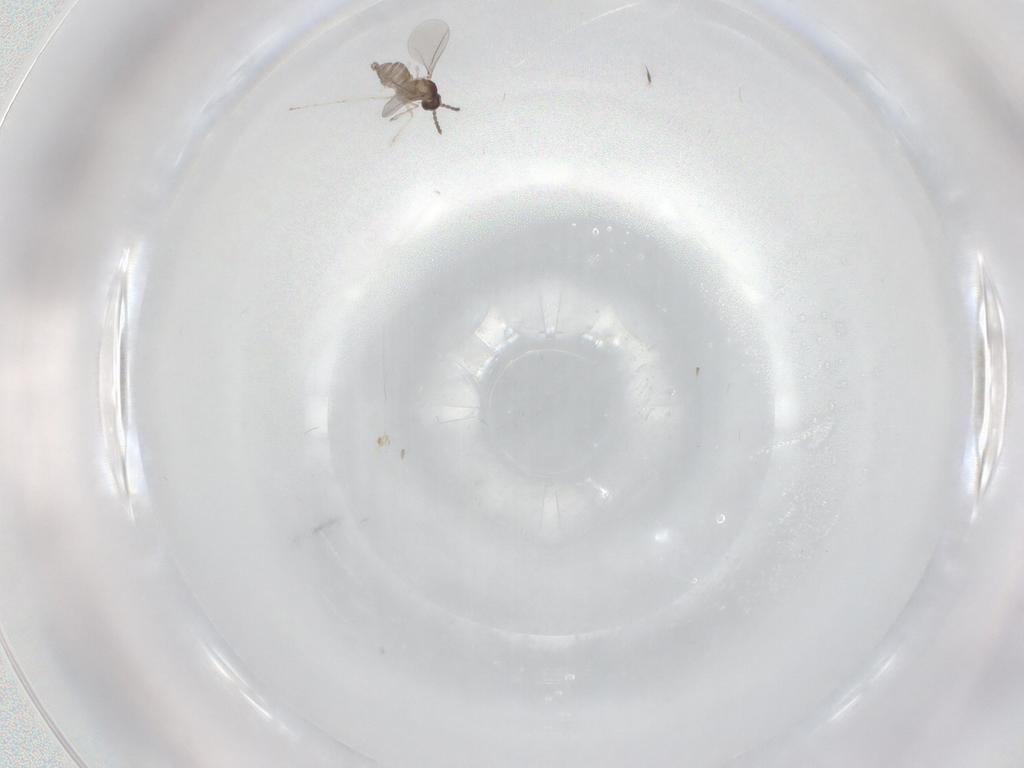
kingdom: Animalia
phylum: Arthropoda
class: Insecta
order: Diptera
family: Cecidomyiidae
